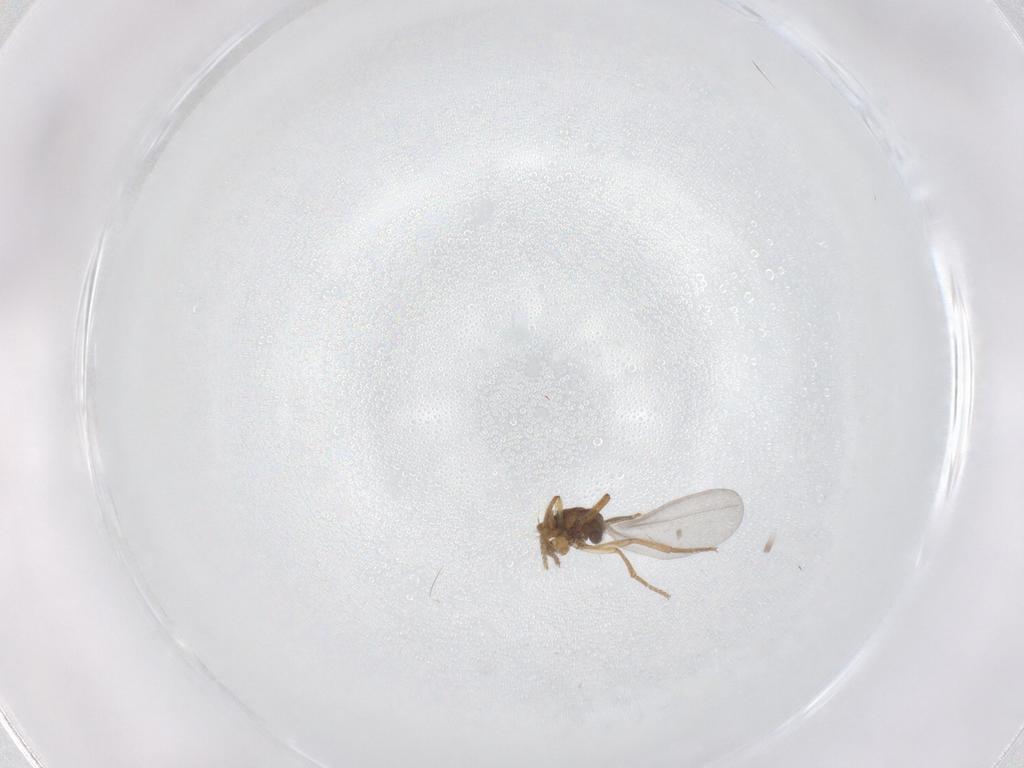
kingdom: Animalia
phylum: Arthropoda
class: Insecta
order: Diptera
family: Phoridae
